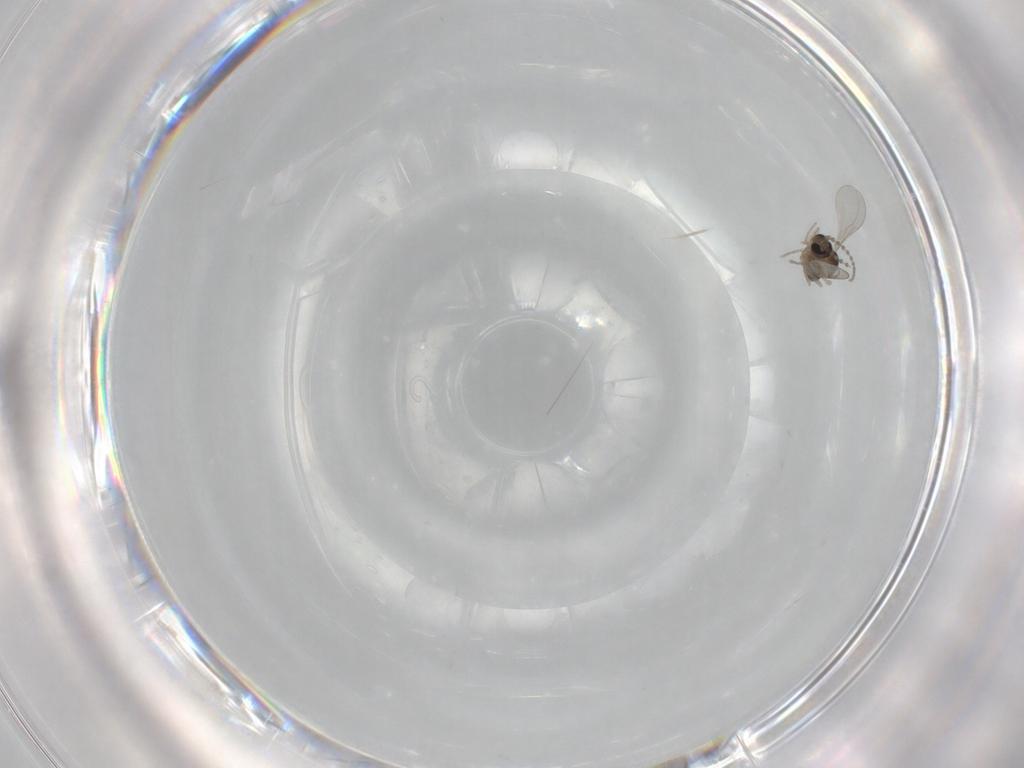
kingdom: Animalia
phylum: Arthropoda
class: Insecta
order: Diptera
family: Cecidomyiidae
